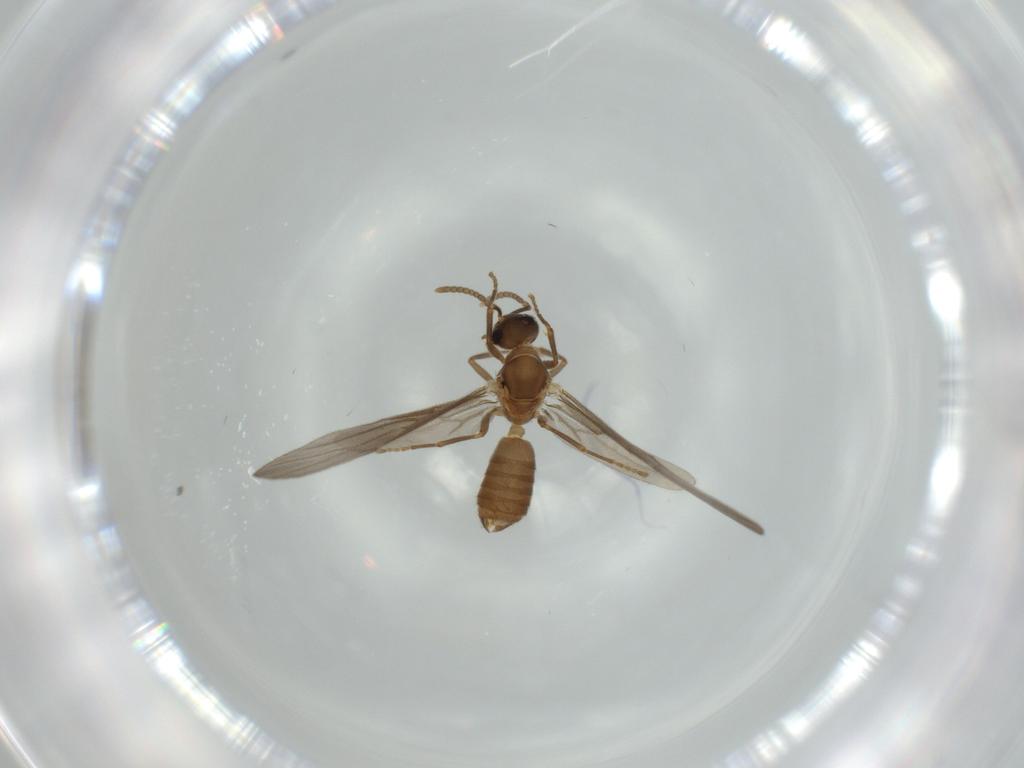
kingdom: Animalia
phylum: Arthropoda
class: Insecta
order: Hymenoptera
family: Formicidae
